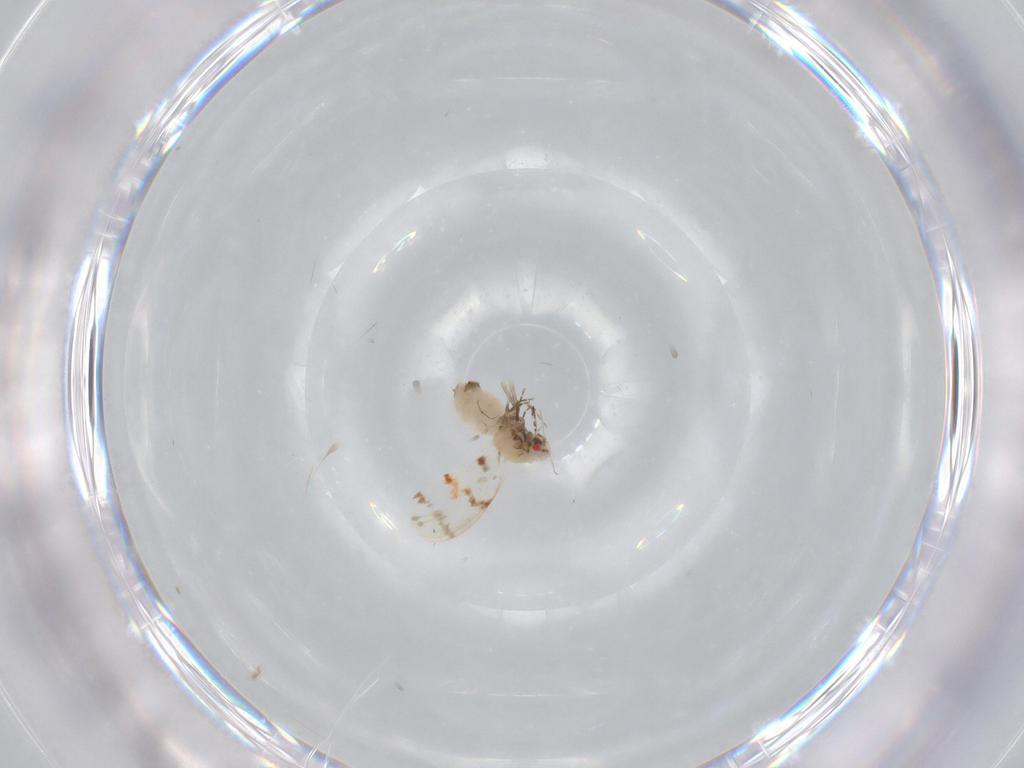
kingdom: Animalia
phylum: Arthropoda
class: Insecta
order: Hemiptera
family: Aleyrodidae
